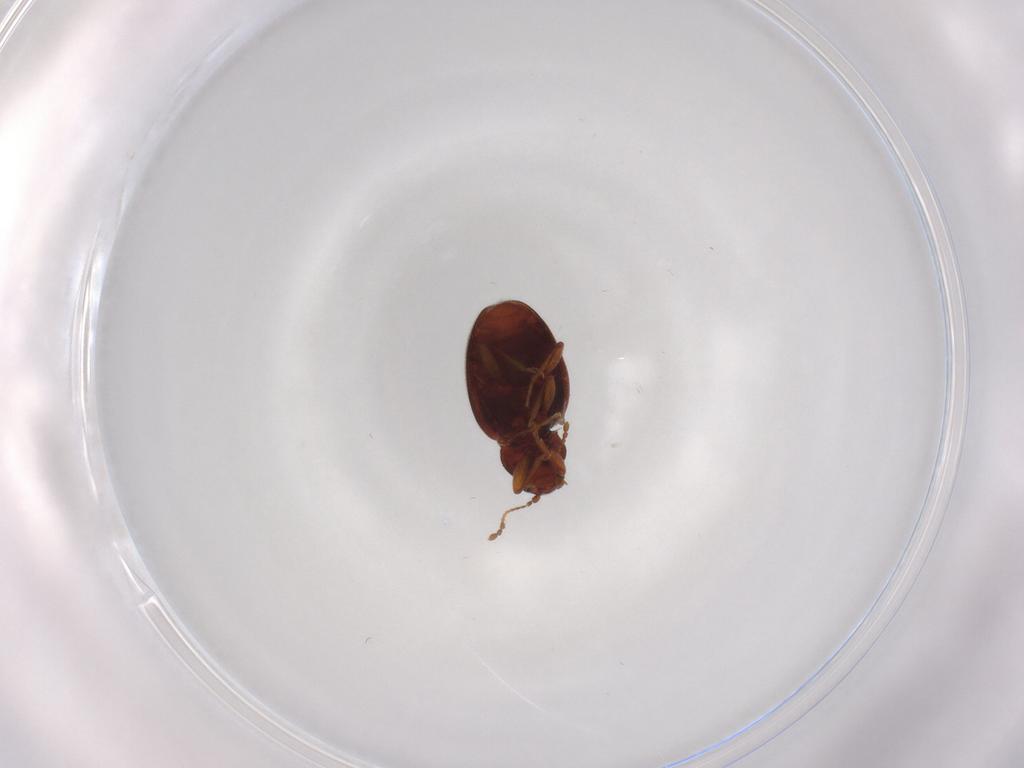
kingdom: Animalia
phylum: Arthropoda
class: Insecta
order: Coleoptera
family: Latridiidae
